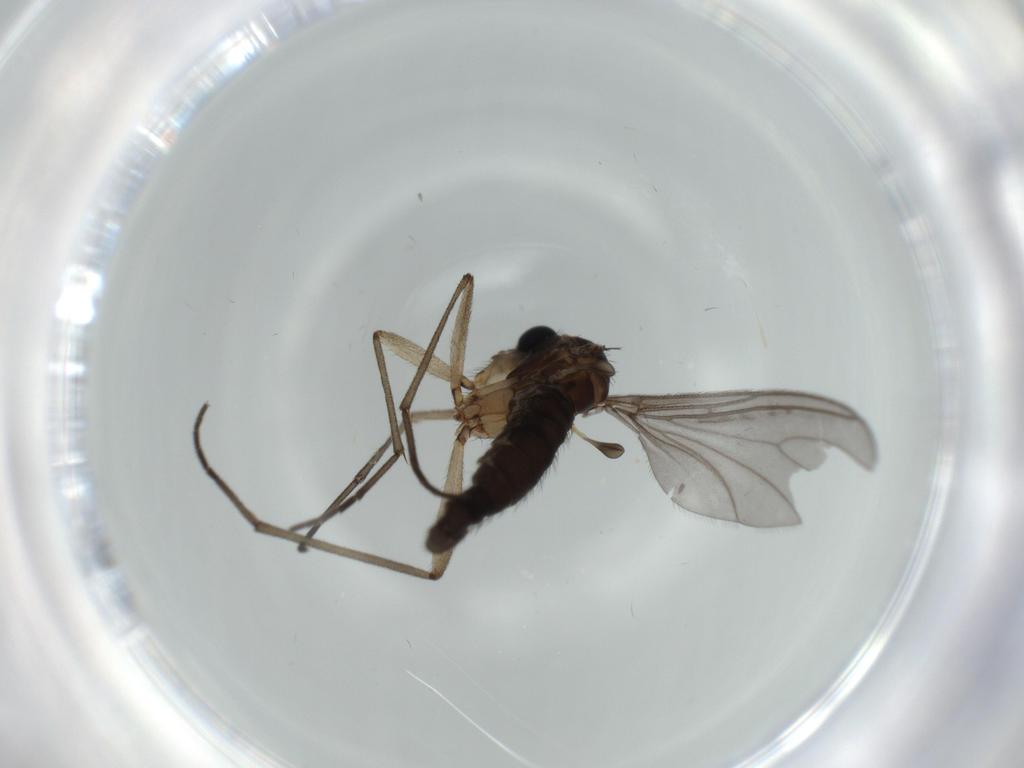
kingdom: Animalia
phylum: Arthropoda
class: Insecta
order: Diptera
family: Sciaridae
